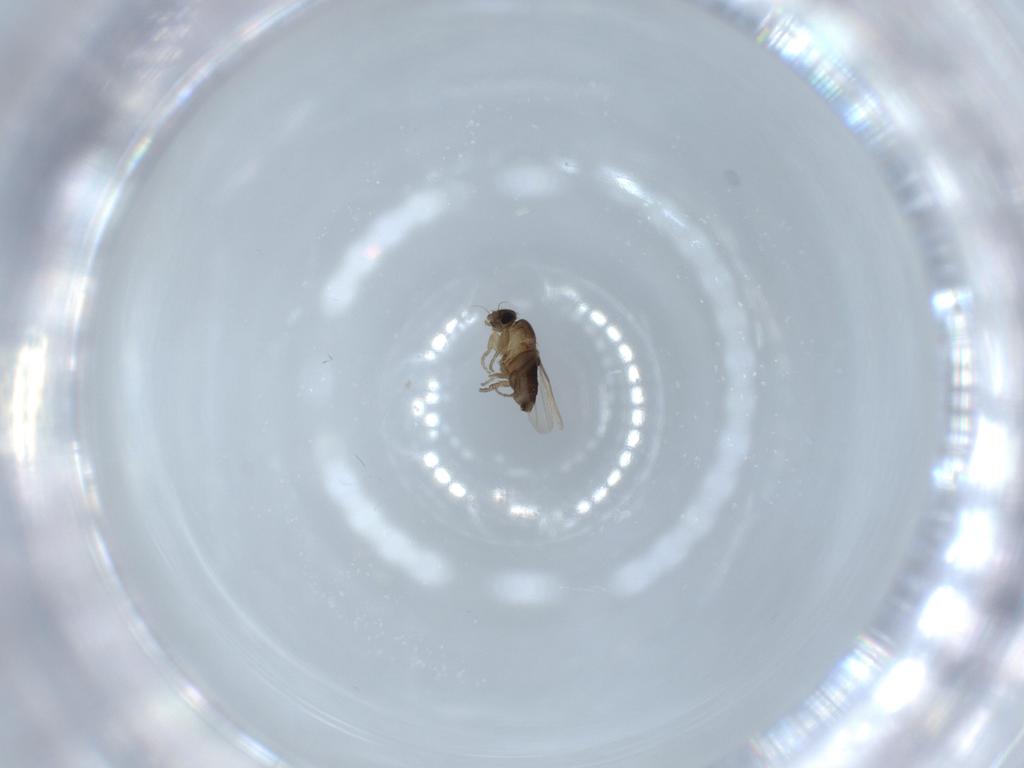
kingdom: Animalia
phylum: Arthropoda
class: Insecta
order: Diptera
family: Phoridae
